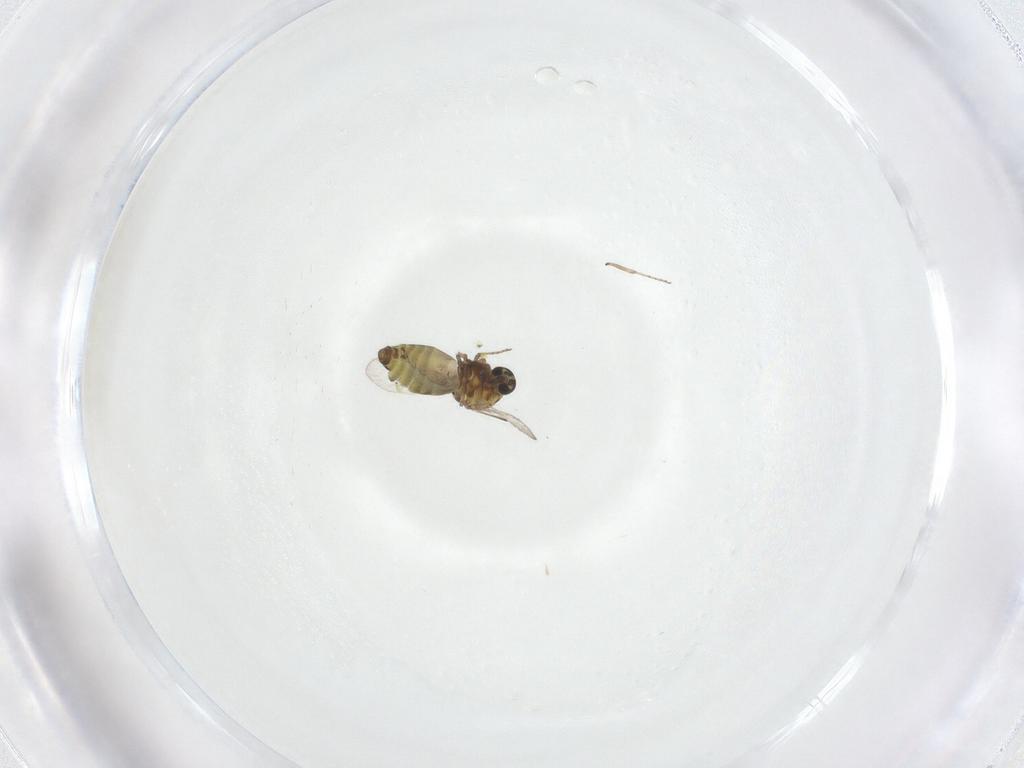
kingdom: Animalia
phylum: Arthropoda
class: Insecta
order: Diptera
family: Ceratopogonidae
